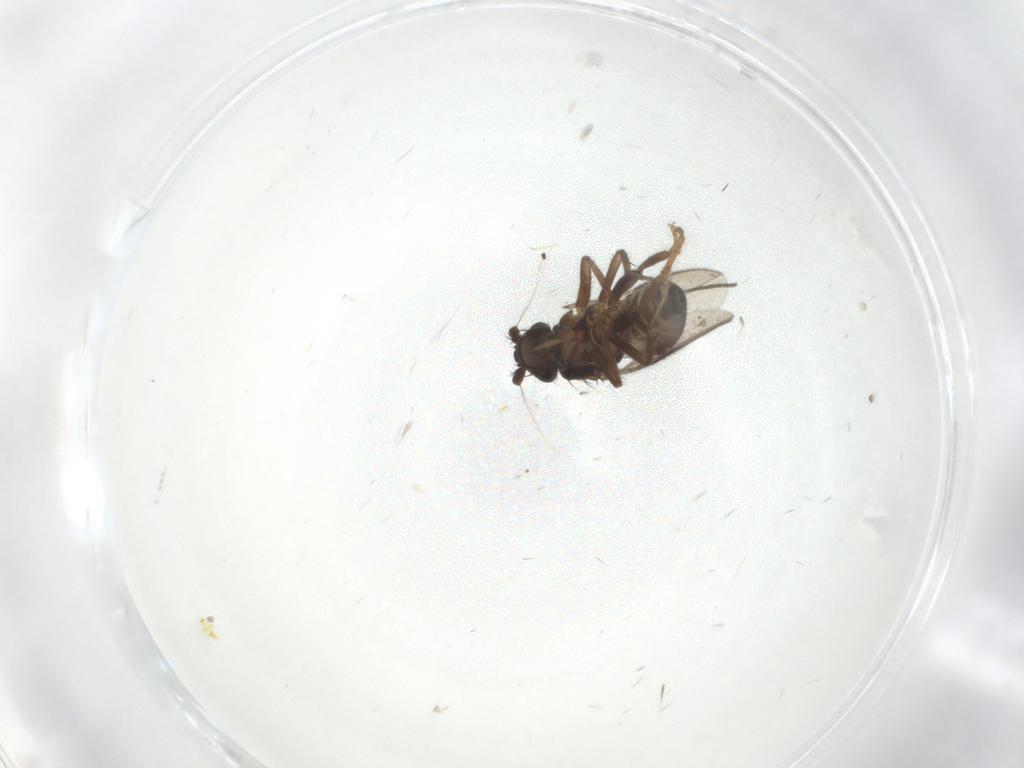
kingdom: Animalia
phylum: Arthropoda
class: Insecta
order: Diptera
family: Sphaeroceridae
